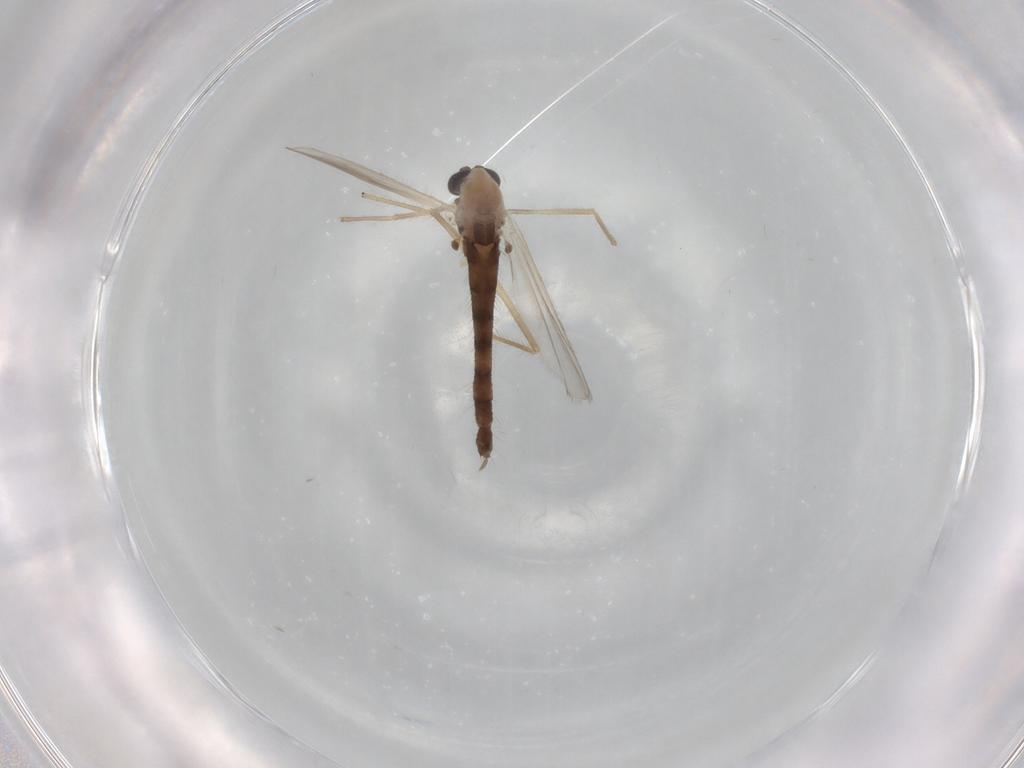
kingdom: Animalia
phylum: Arthropoda
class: Insecta
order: Diptera
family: Chironomidae
